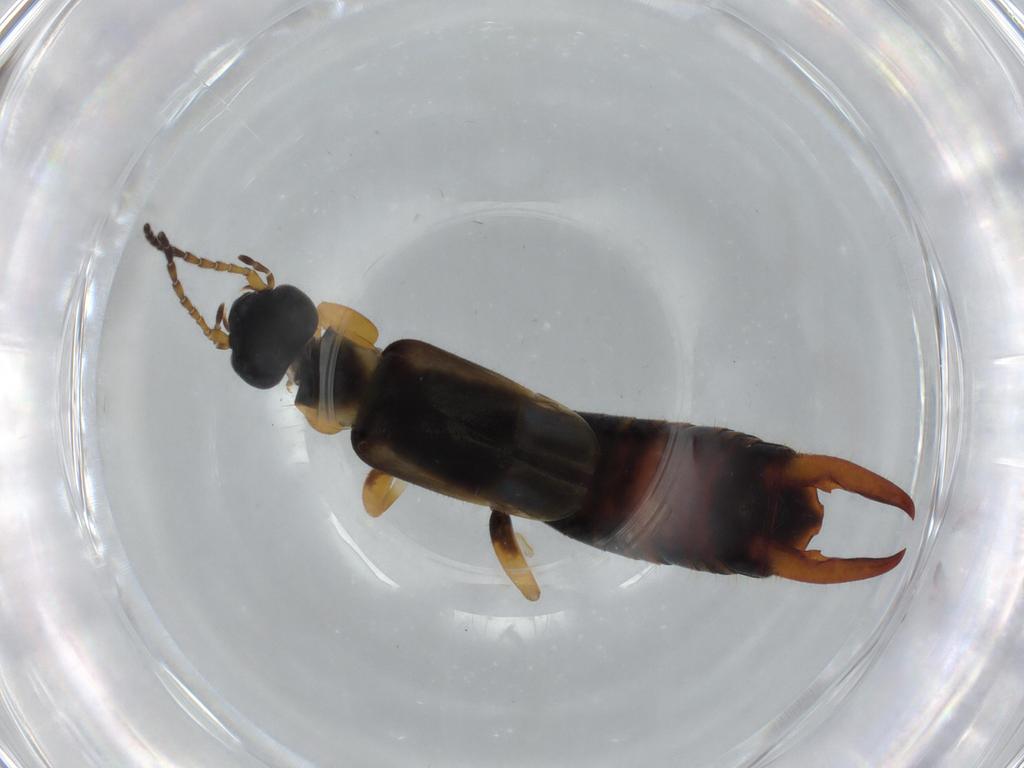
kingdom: Animalia
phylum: Arthropoda
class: Insecta
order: Dermaptera
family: Labiduridae
